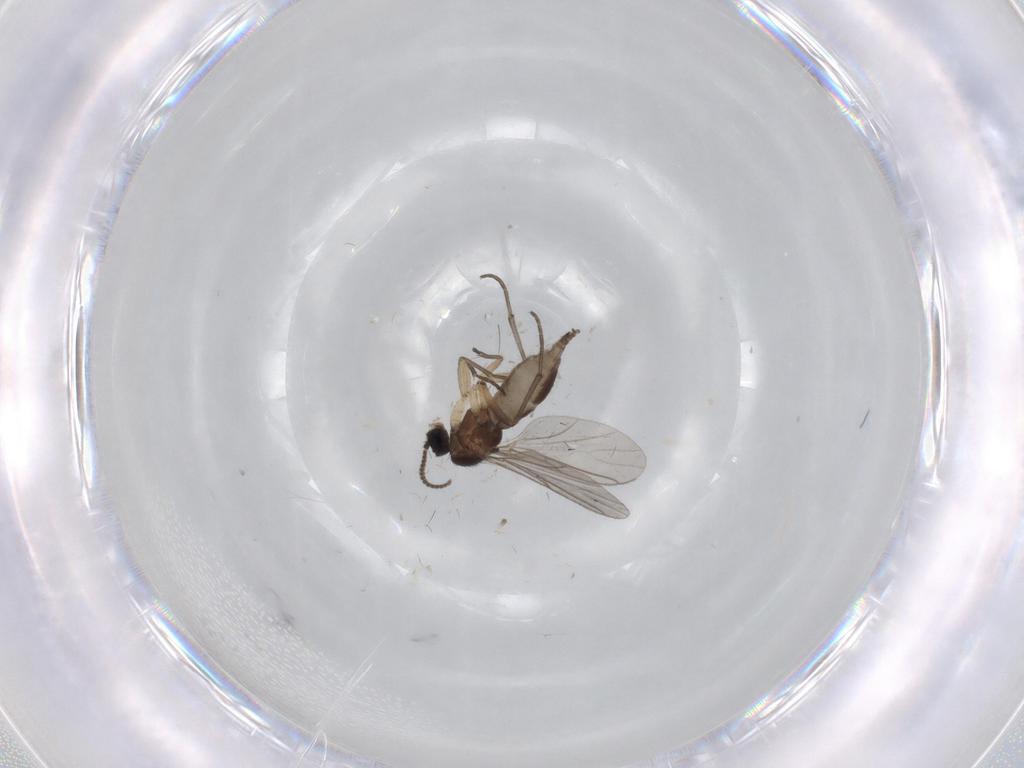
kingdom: Animalia
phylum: Arthropoda
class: Insecta
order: Diptera
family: Sciaridae
